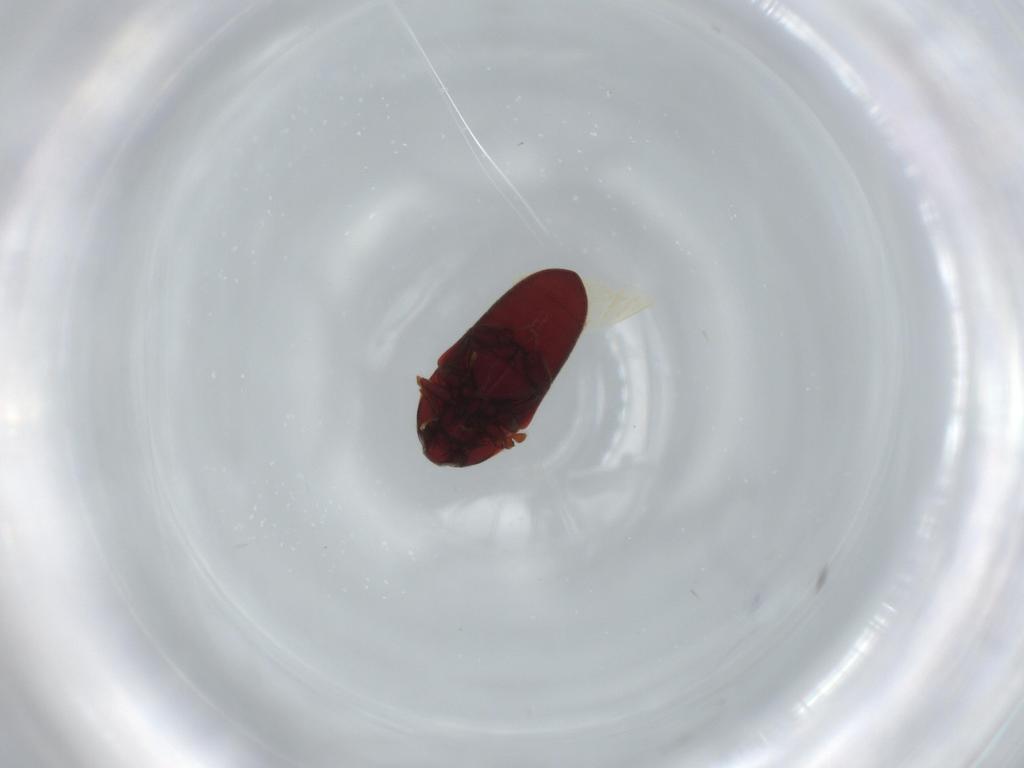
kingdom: Animalia
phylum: Arthropoda
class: Insecta
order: Coleoptera
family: Throscidae
